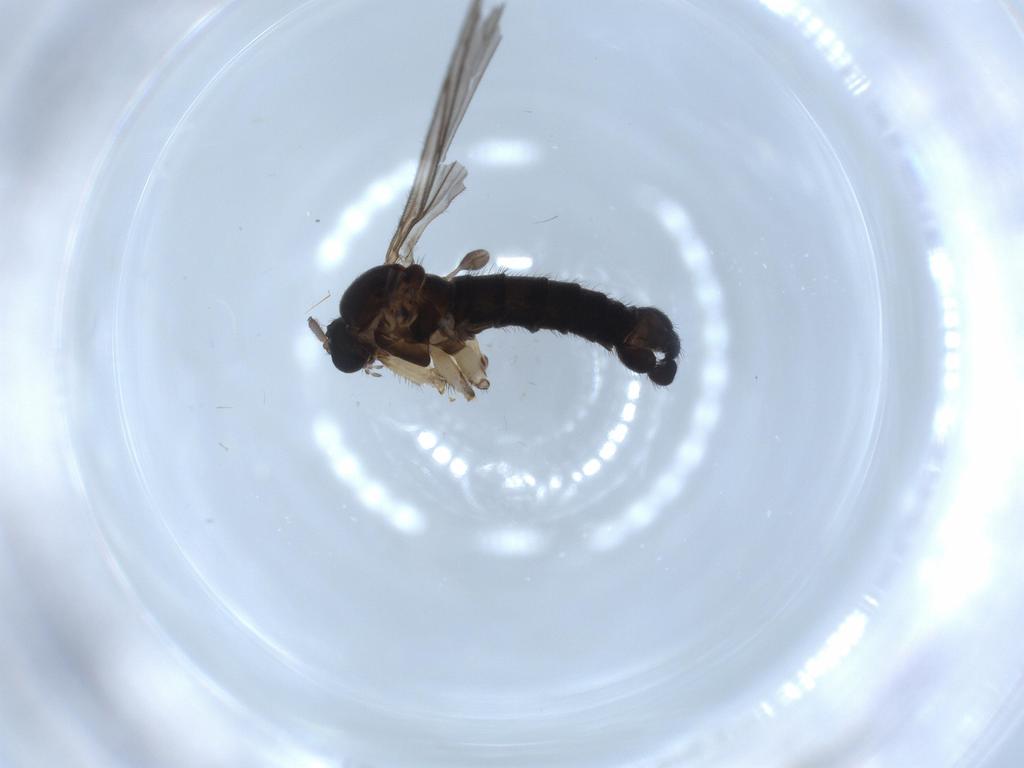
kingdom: Animalia
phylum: Arthropoda
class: Insecta
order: Diptera
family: Sciaridae
